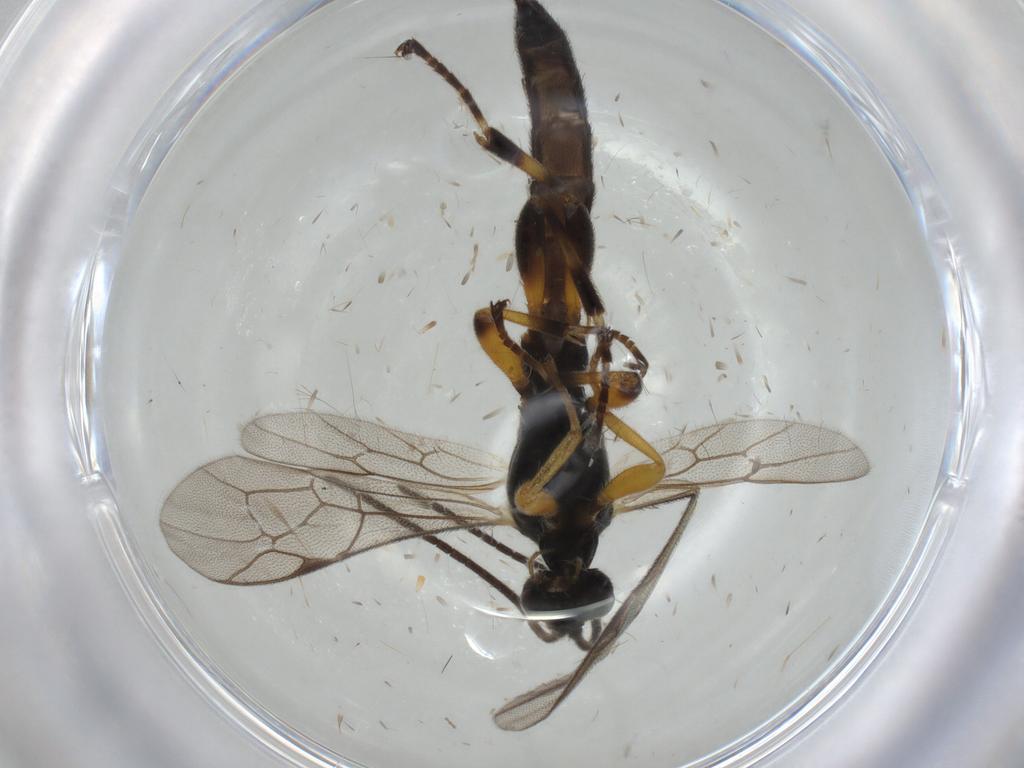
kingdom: Animalia
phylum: Arthropoda
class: Insecta
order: Hymenoptera
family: Ichneumonidae
